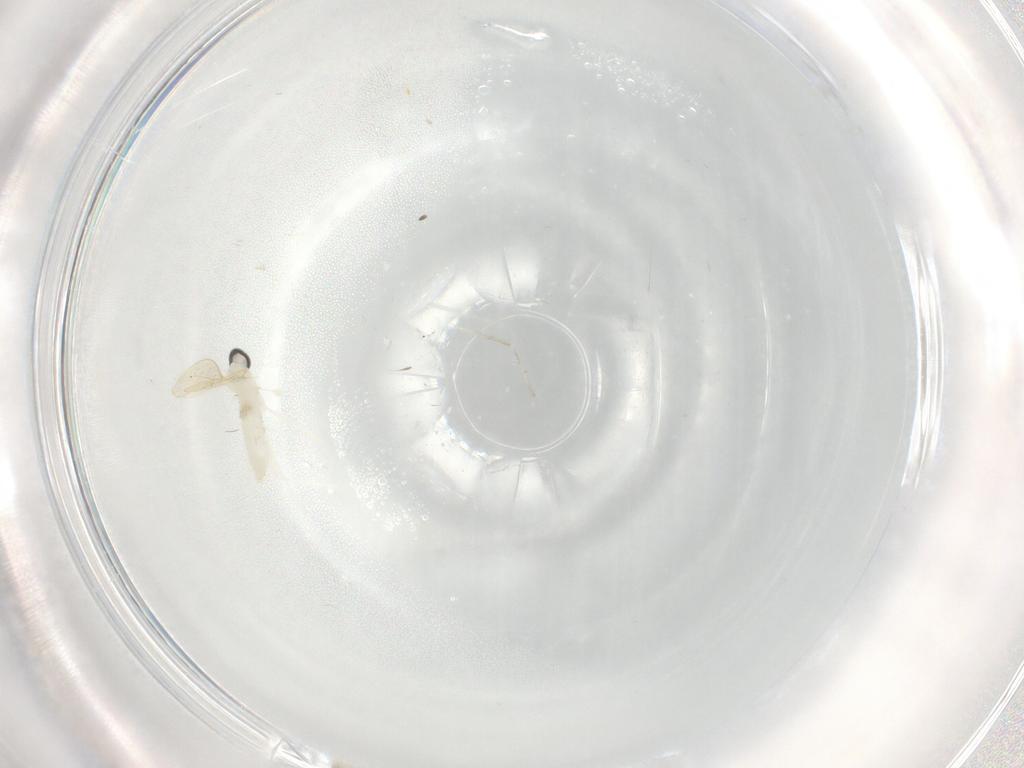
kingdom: Animalia
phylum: Arthropoda
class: Insecta
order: Diptera
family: Cecidomyiidae
